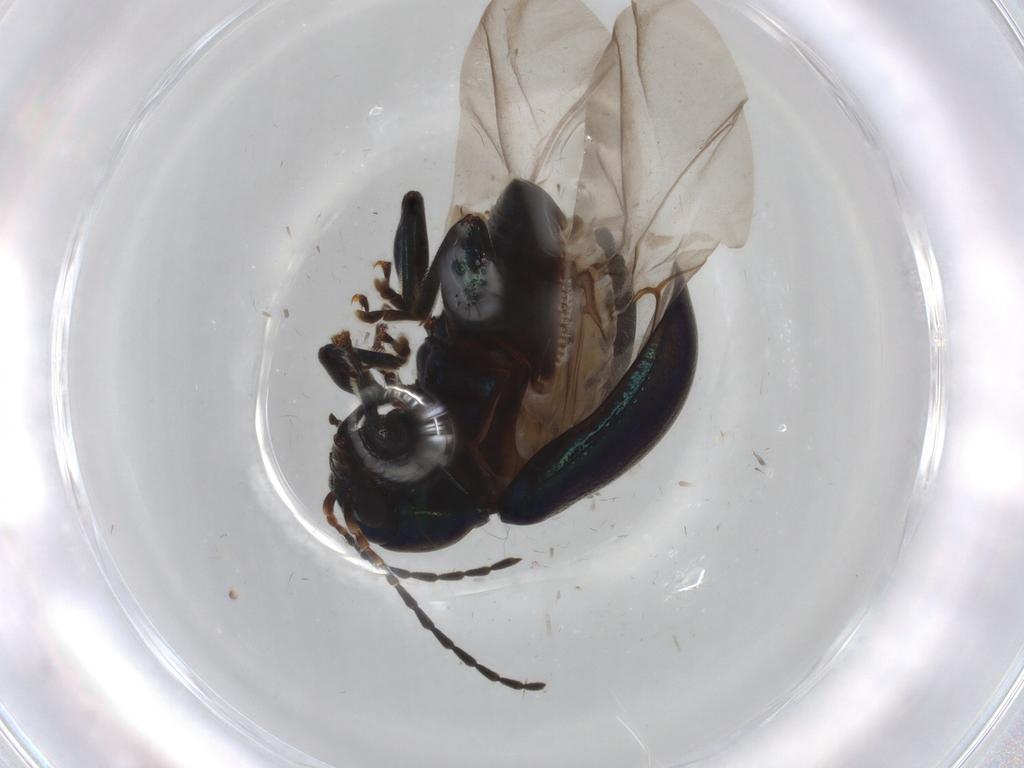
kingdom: Animalia
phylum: Arthropoda
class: Insecta
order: Coleoptera
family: Chrysomelidae
